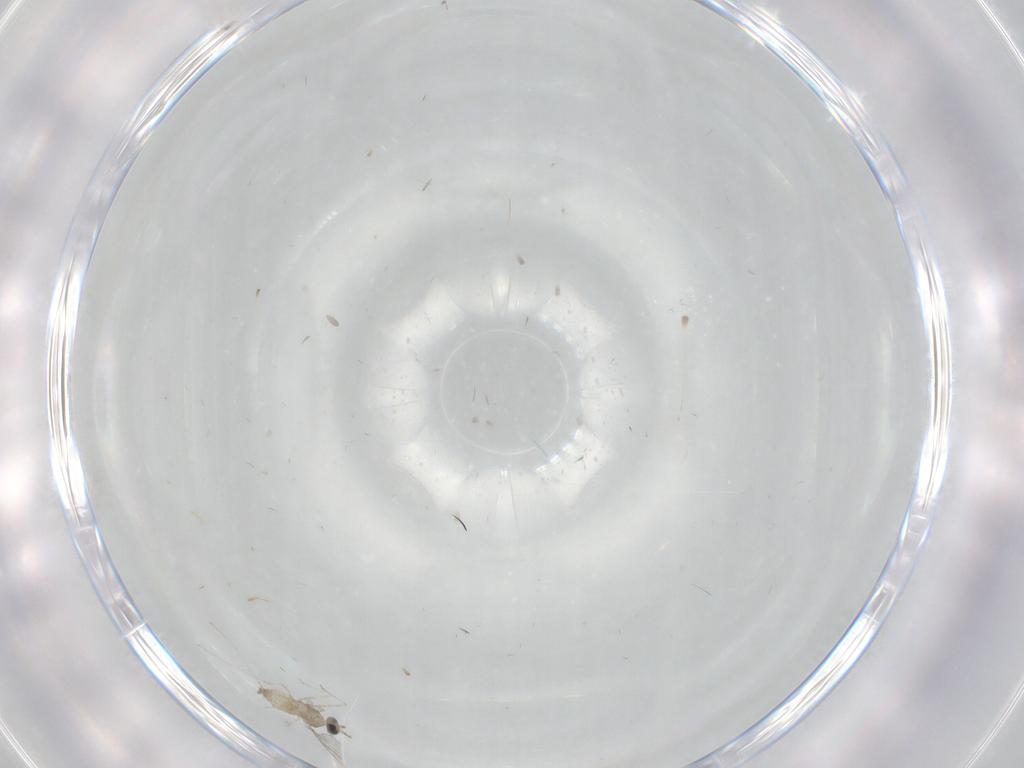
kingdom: Animalia
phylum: Arthropoda
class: Insecta
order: Diptera
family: Cecidomyiidae
